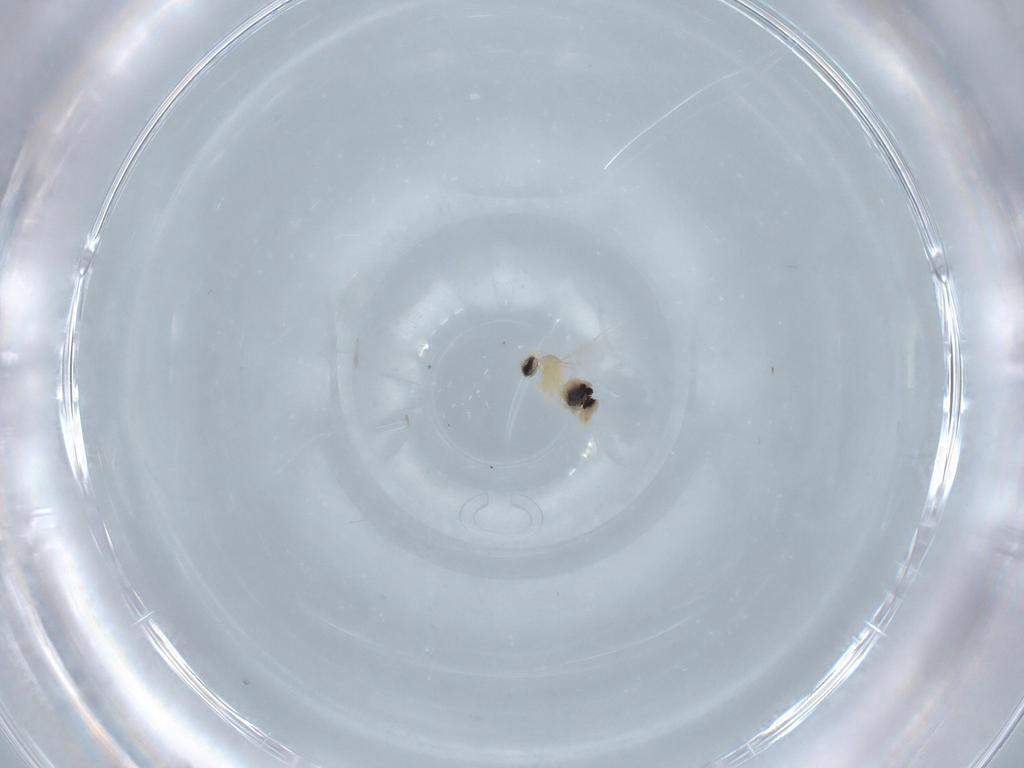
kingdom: Animalia
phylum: Arthropoda
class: Insecta
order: Diptera
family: Cecidomyiidae
